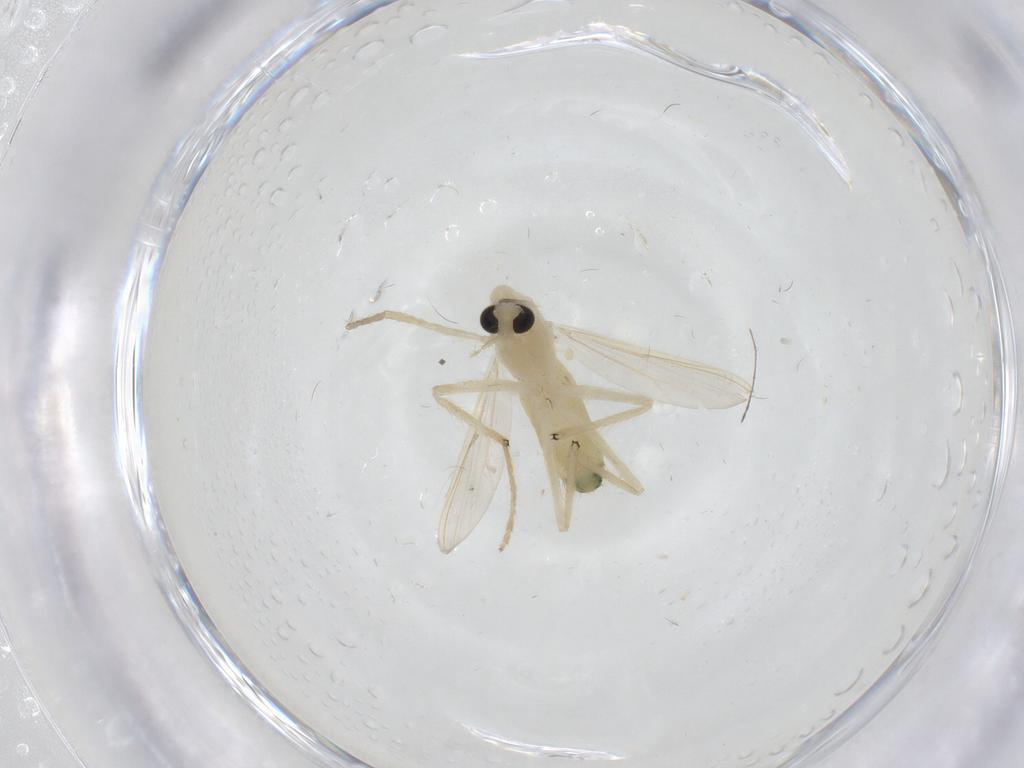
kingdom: Animalia
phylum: Arthropoda
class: Insecta
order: Diptera
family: Chironomidae
